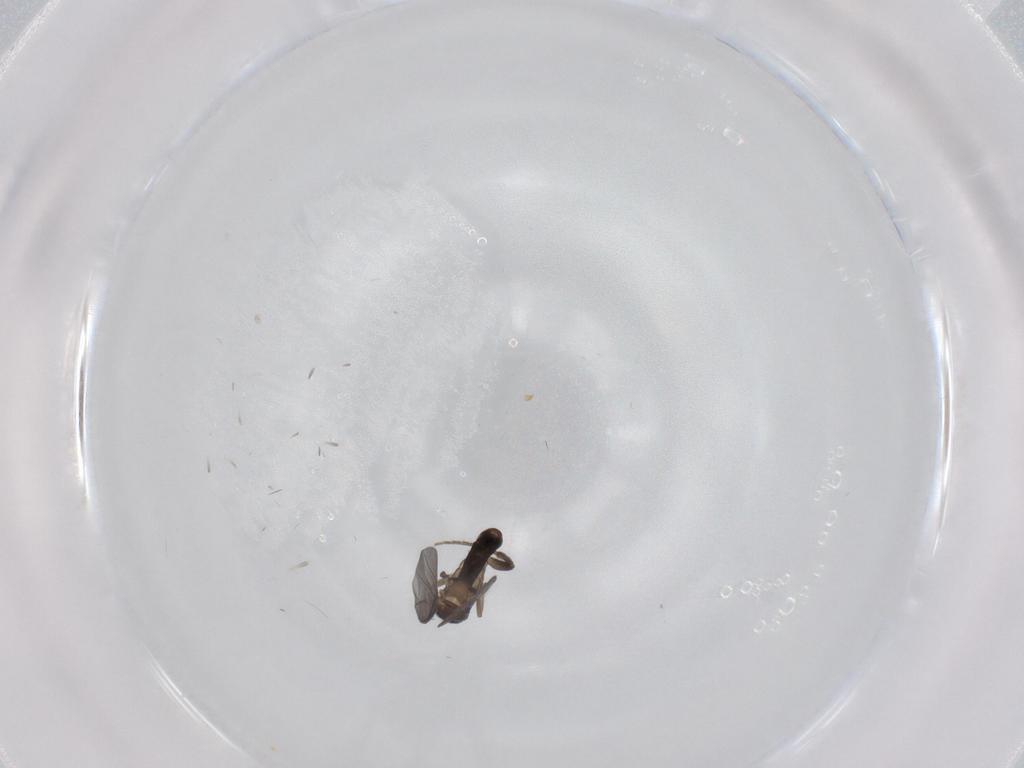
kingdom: Animalia
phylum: Arthropoda
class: Insecta
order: Diptera
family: Phoridae
